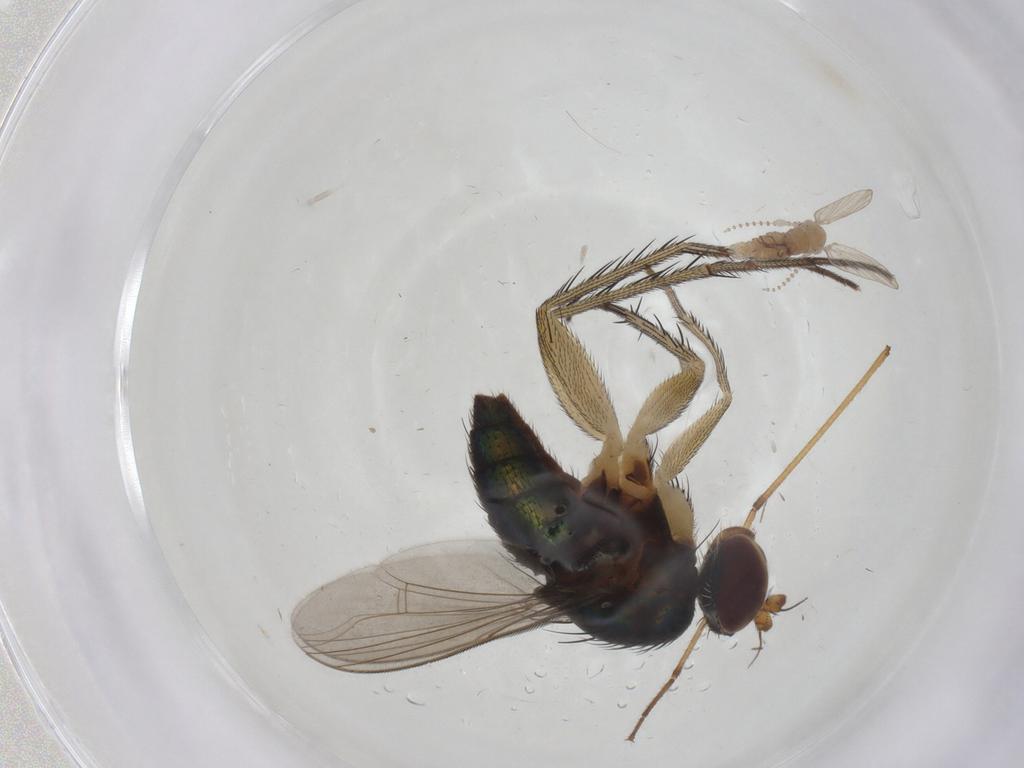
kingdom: Animalia
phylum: Arthropoda
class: Insecta
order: Diptera
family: Dolichopodidae
